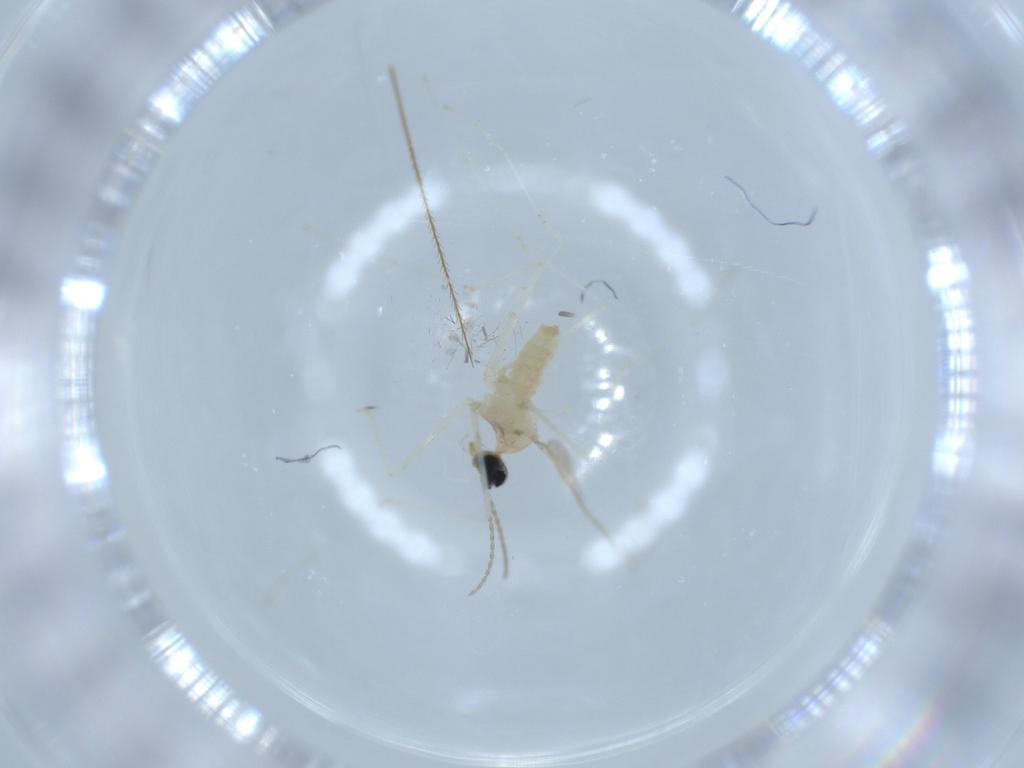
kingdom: Animalia
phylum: Arthropoda
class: Insecta
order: Diptera
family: Cecidomyiidae
